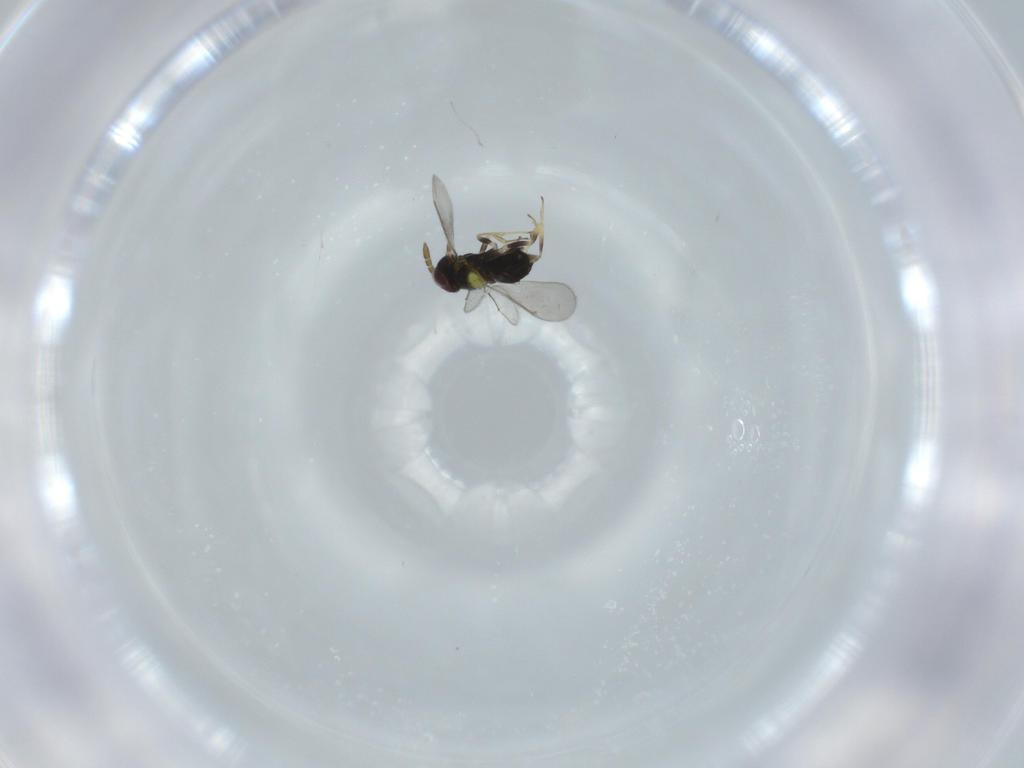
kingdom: Animalia
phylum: Arthropoda
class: Insecta
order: Hymenoptera
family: Aphelinidae
